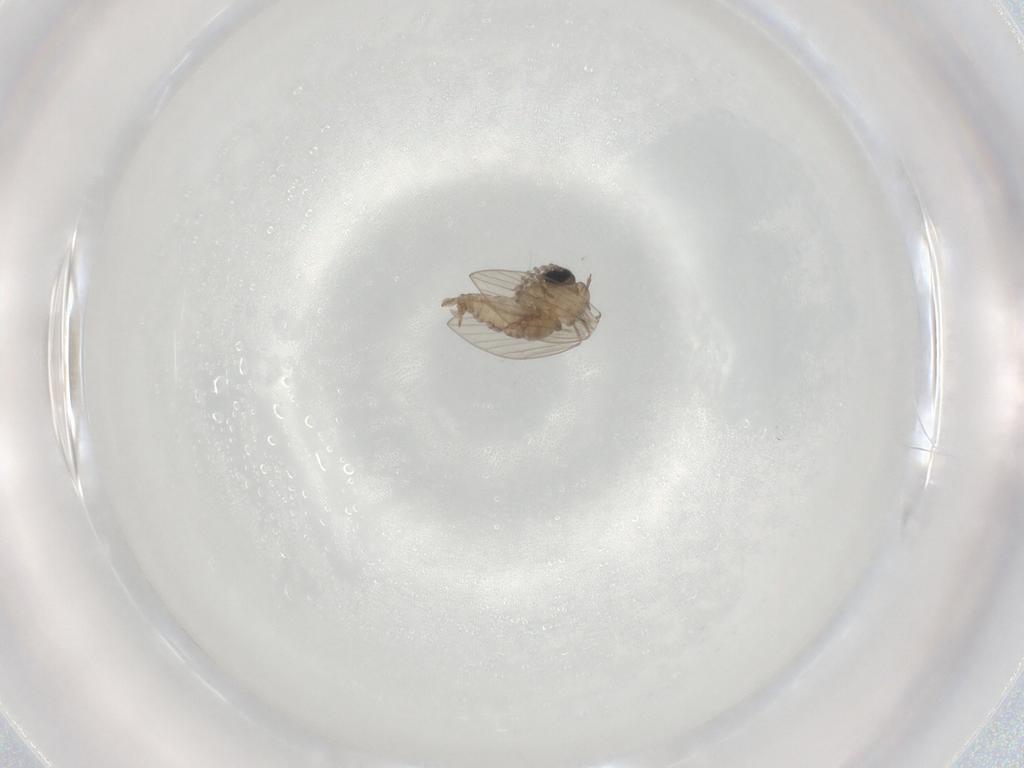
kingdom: Animalia
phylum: Arthropoda
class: Insecta
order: Diptera
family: Psychodidae
